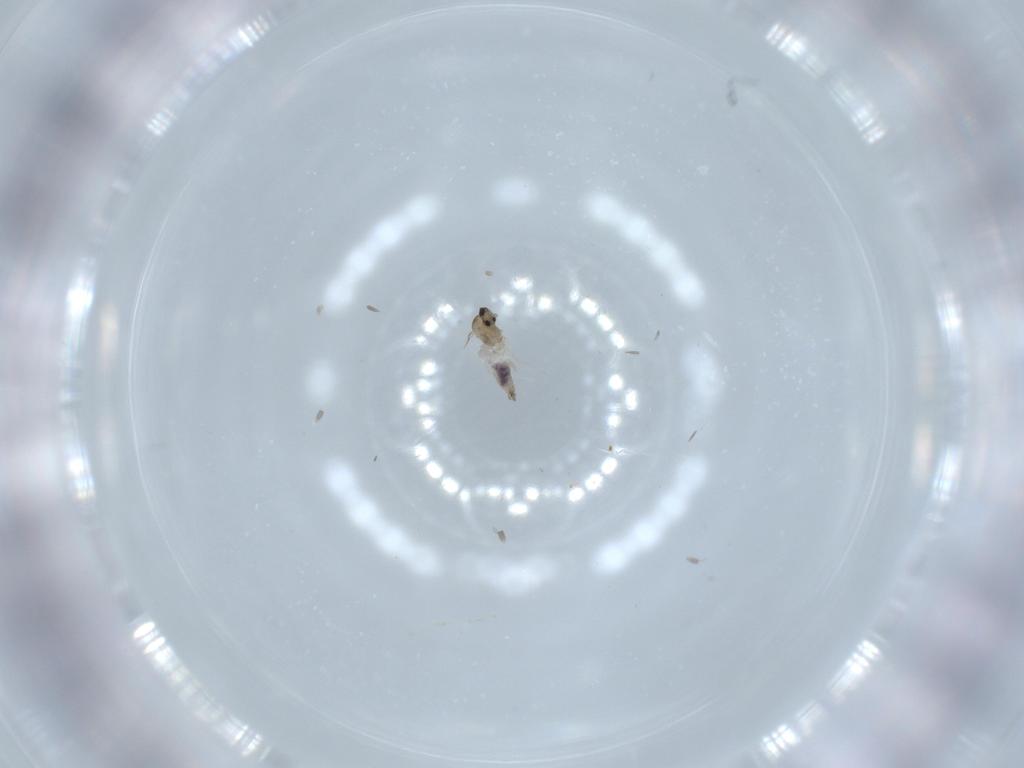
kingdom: Animalia
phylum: Arthropoda
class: Insecta
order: Diptera
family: Cecidomyiidae
